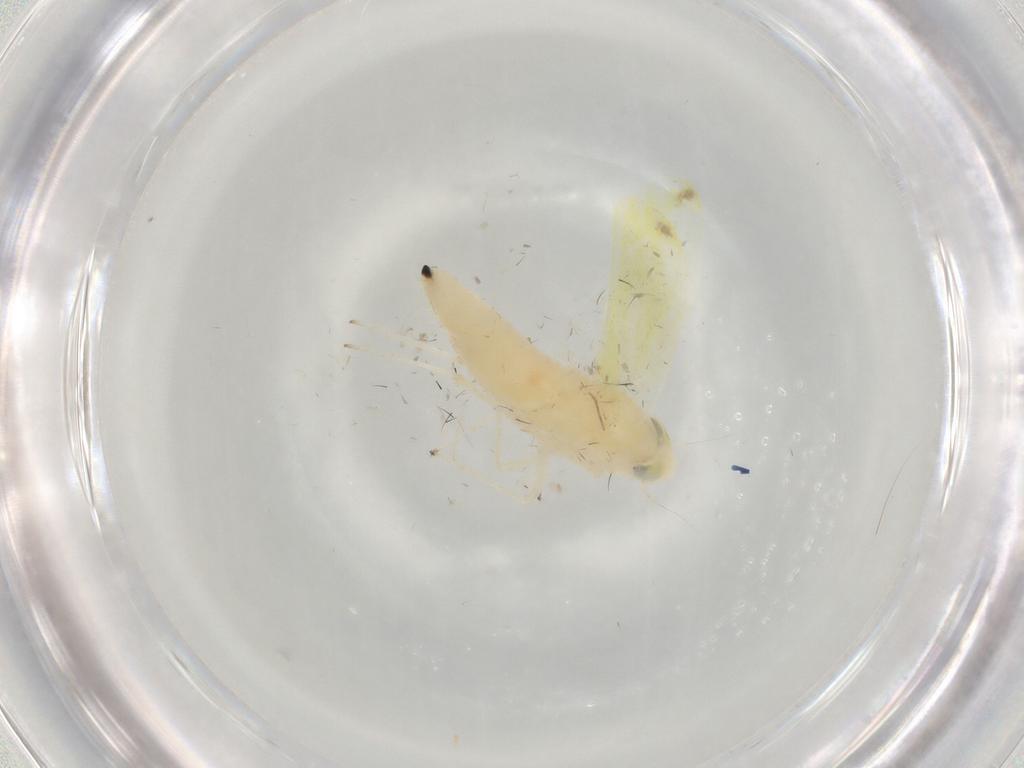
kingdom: Animalia
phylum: Arthropoda
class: Insecta
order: Hemiptera
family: Cicadellidae
